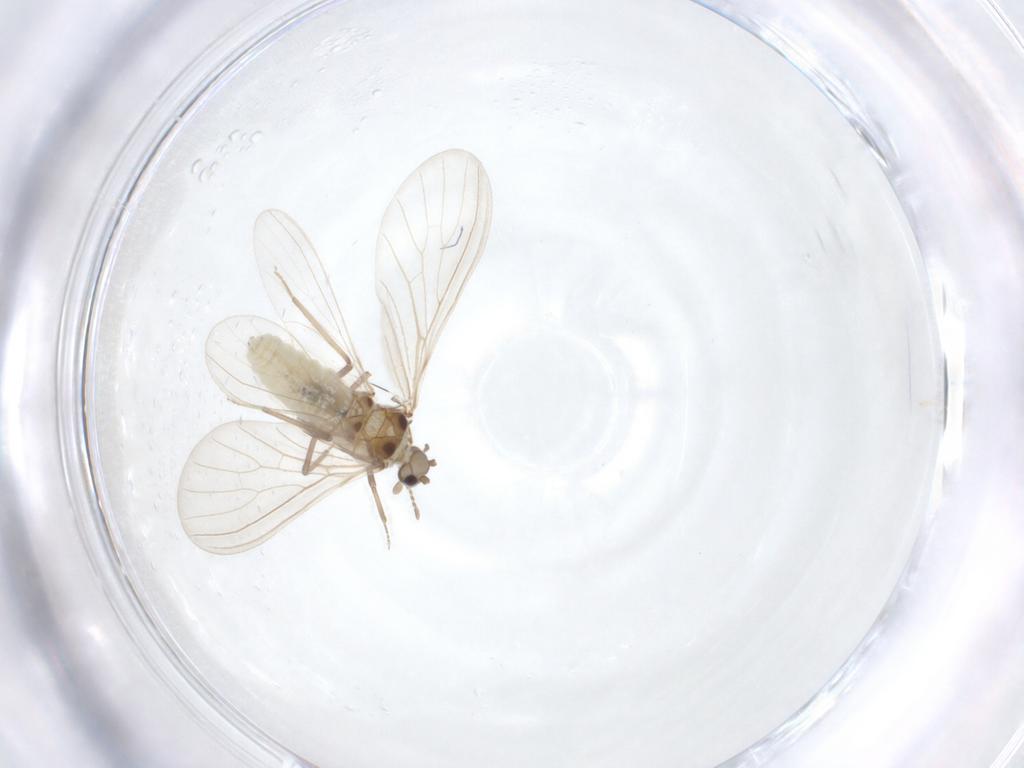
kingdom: Animalia
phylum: Arthropoda
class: Insecta
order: Neuroptera
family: Coniopterygidae
